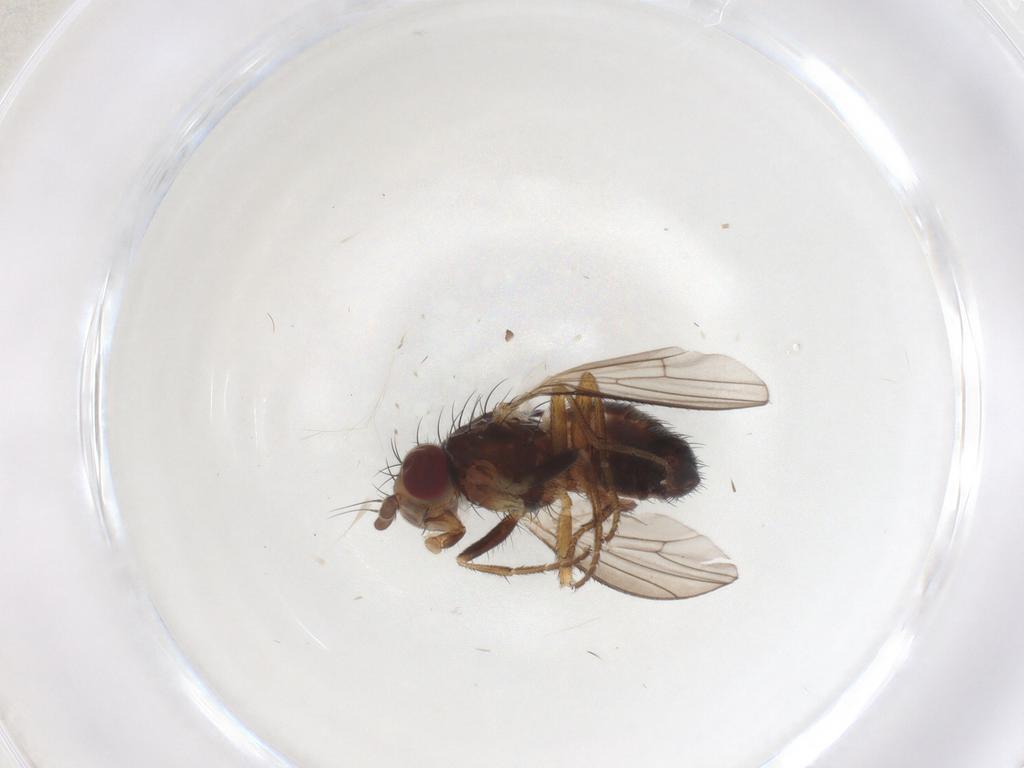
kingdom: Animalia
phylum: Arthropoda
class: Insecta
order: Diptera
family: Heleomyzidae
